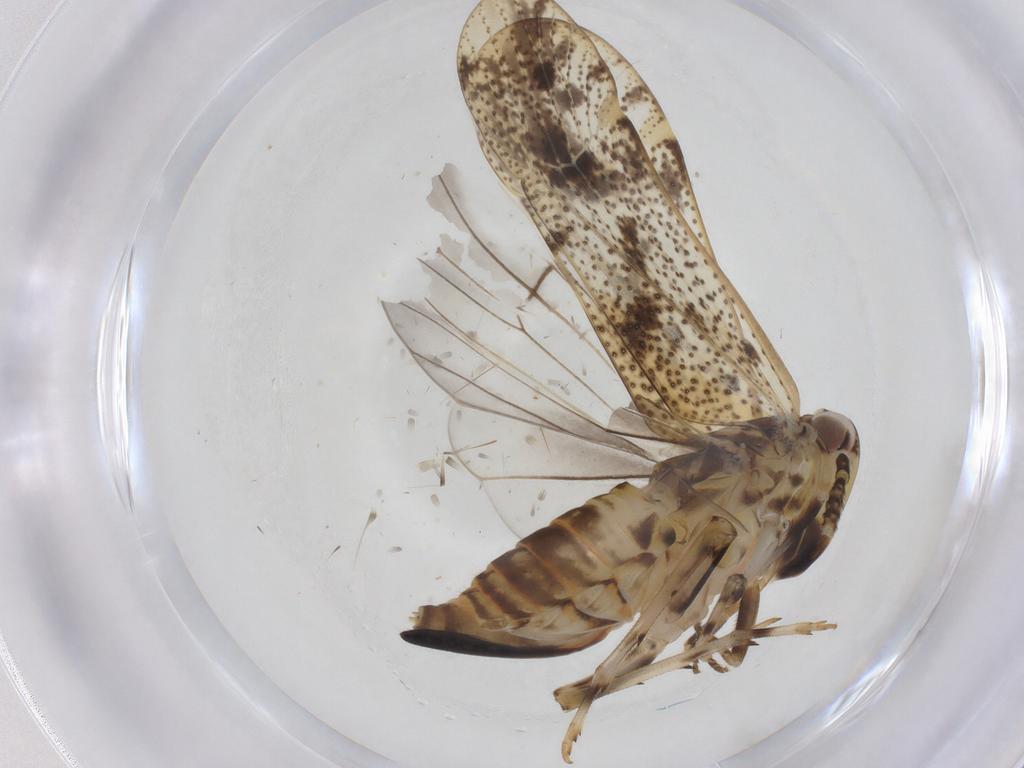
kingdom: Animalia
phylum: Arthropoda
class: Insecta
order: Hemiptera
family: Delphacidae
